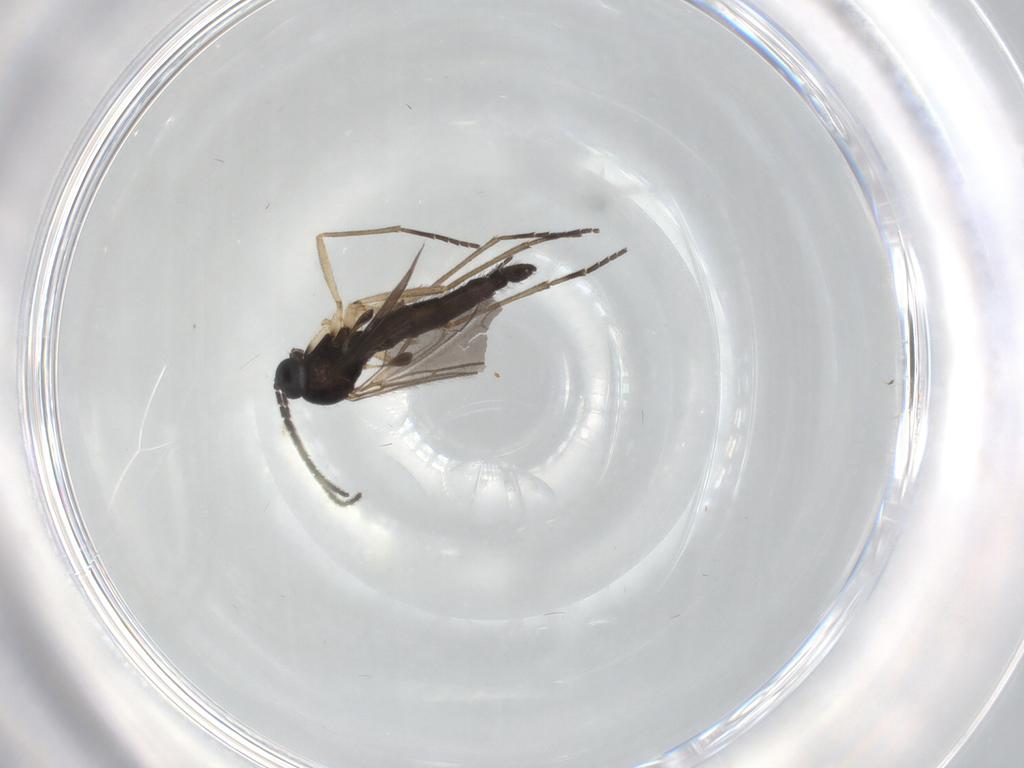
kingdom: Animalia
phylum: Arthropoda
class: Insecta
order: Diptera
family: Sciaridae
